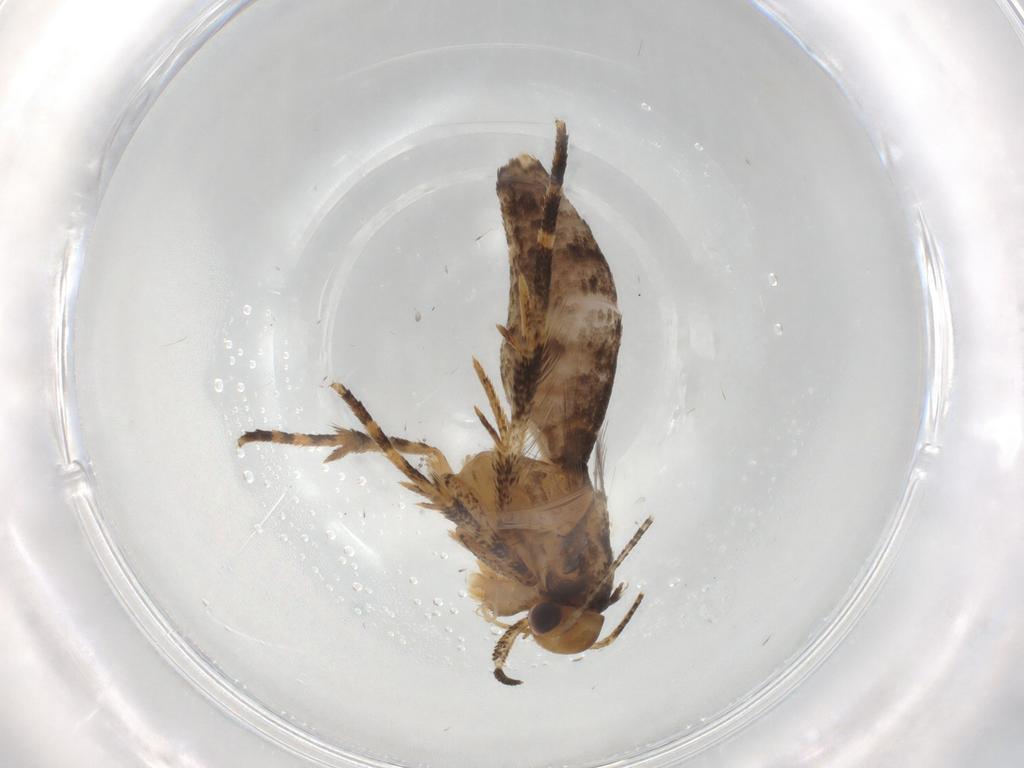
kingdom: Animalia
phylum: Arthropoda
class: Insecta
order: Lepidoptera
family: Gelechiidae
